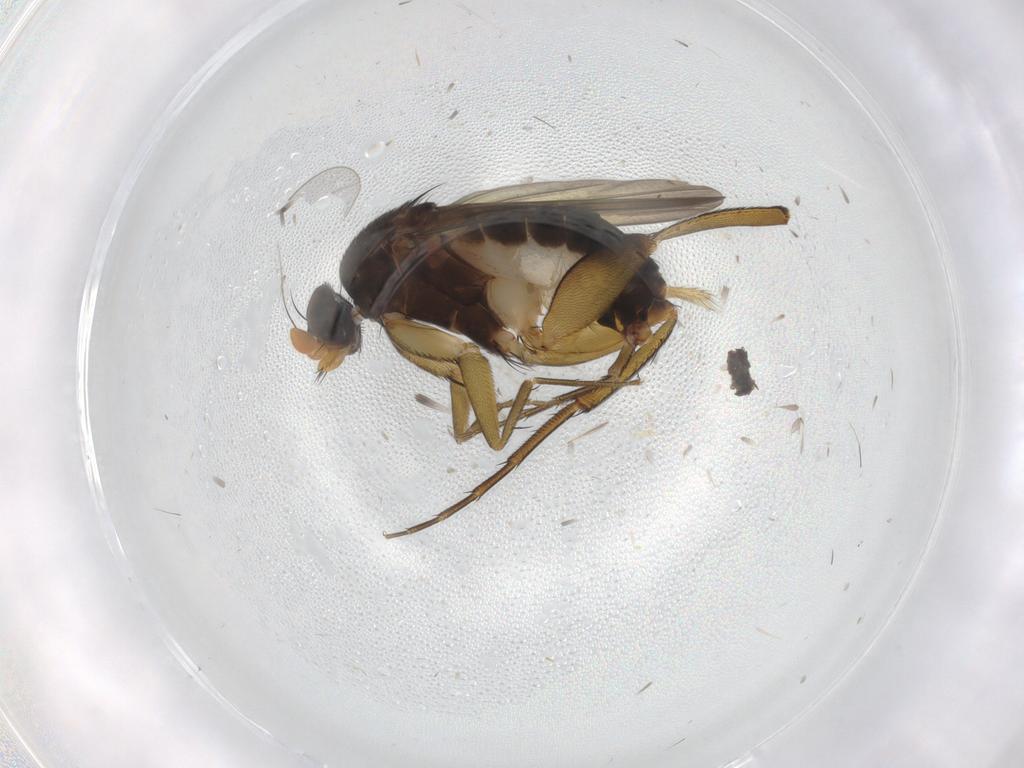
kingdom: Animalia
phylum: Arthropoda
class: Insecta
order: Diptera
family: Phoridae
